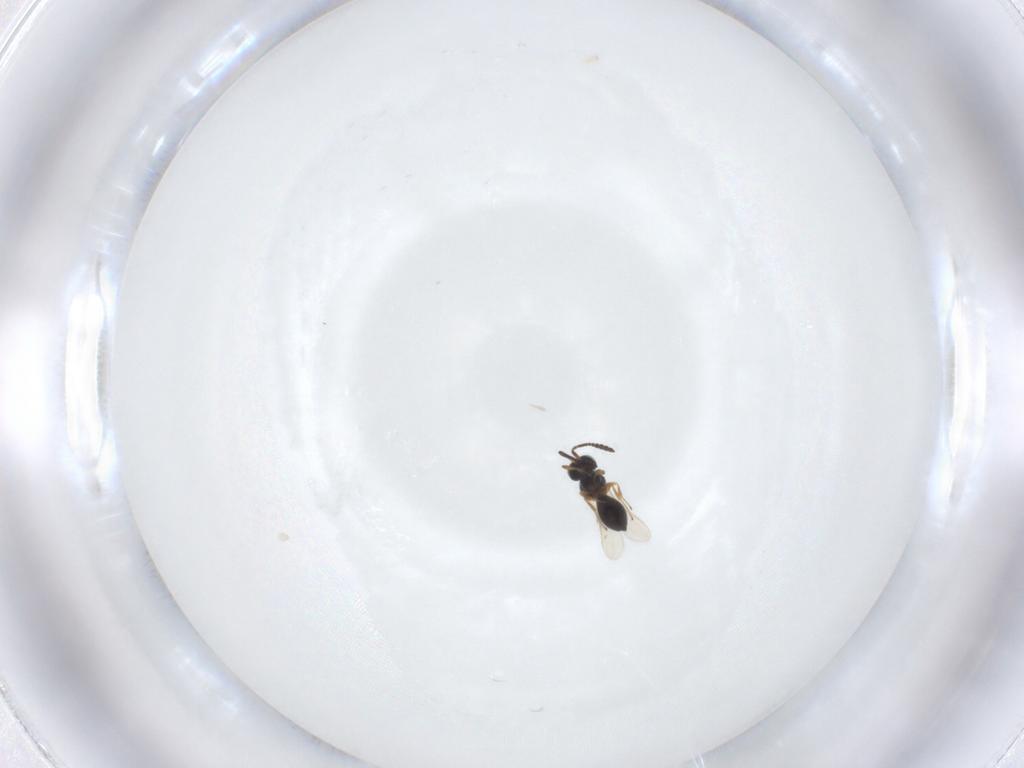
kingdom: Animalia
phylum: Arthropoda
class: Insecta
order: Hymenoptera
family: Scelionidae
